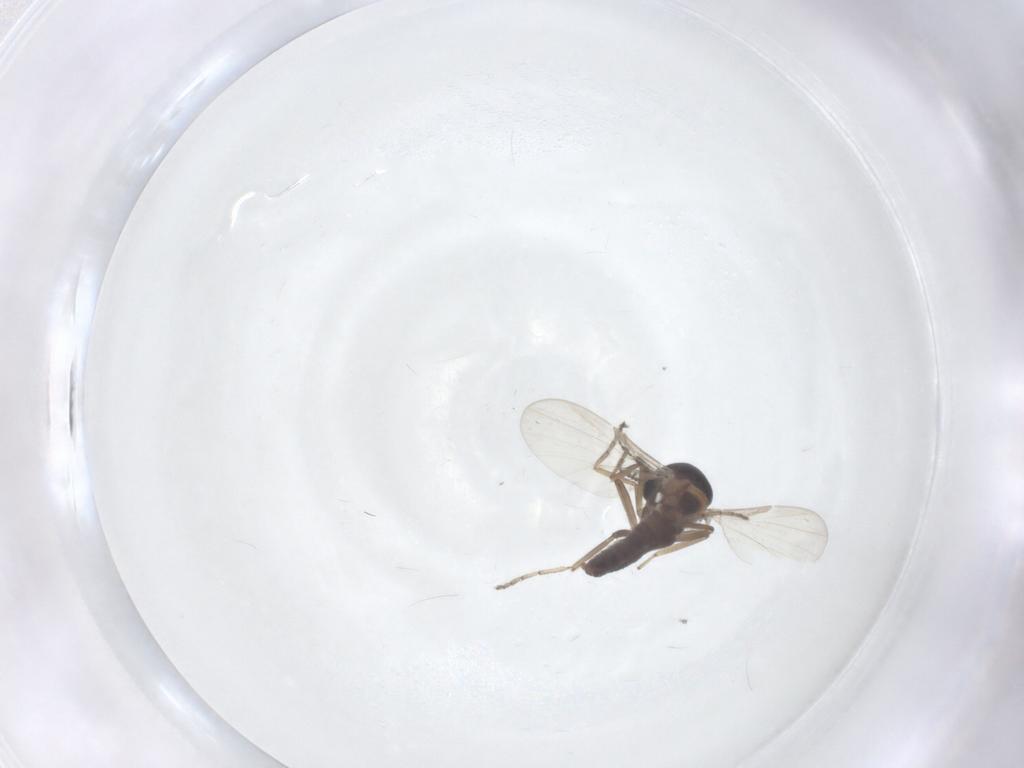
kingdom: Animalia
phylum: Arthropoda
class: Insecta
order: Diptera
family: Ceratopogonidae
